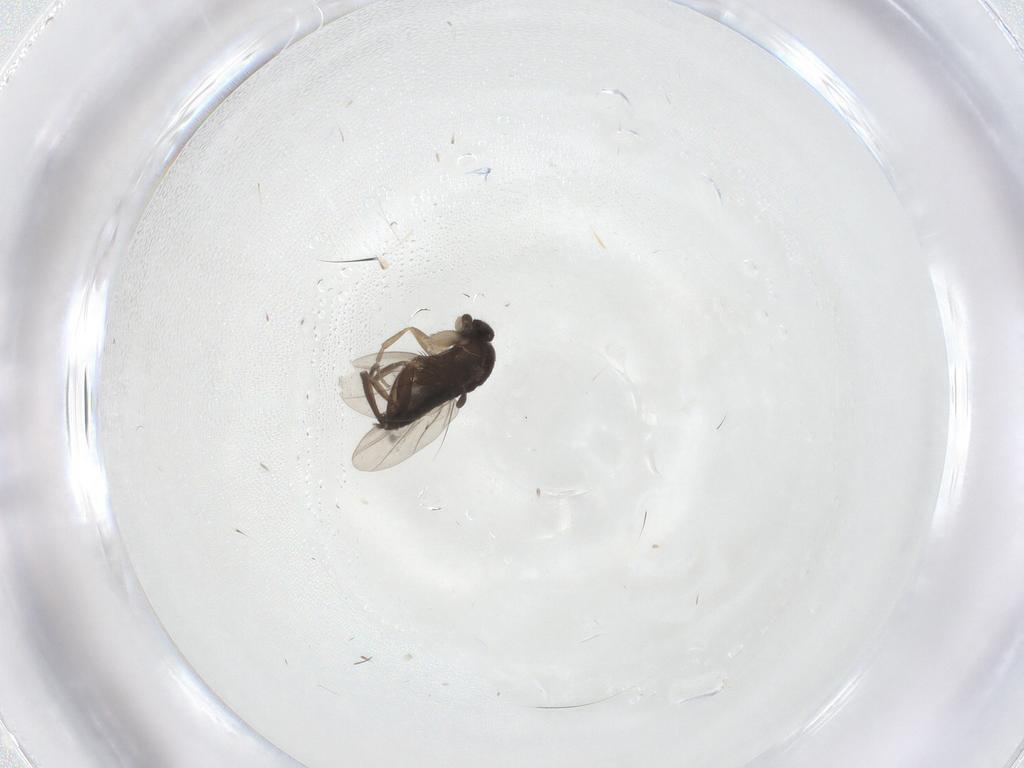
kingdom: Animalia
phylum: Arthropoda
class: Insecta
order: Diptera
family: Phoridae
